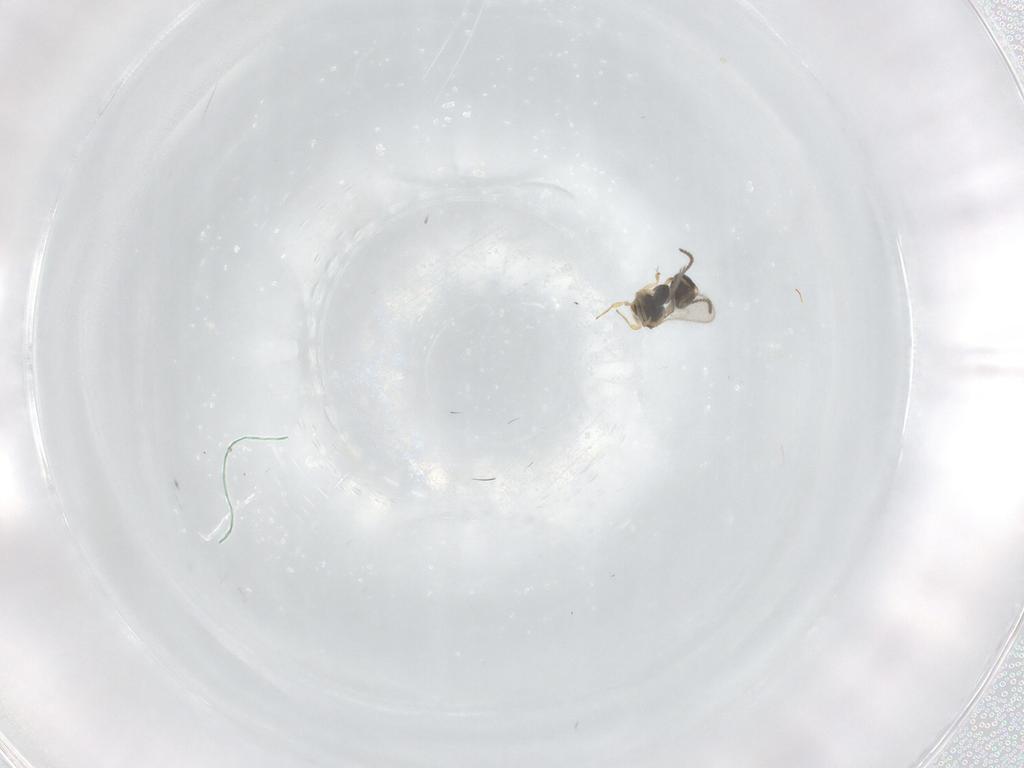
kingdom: Animalia
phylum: Arthropoda
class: Insecta
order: Hymenoptera
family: Scelionidae
